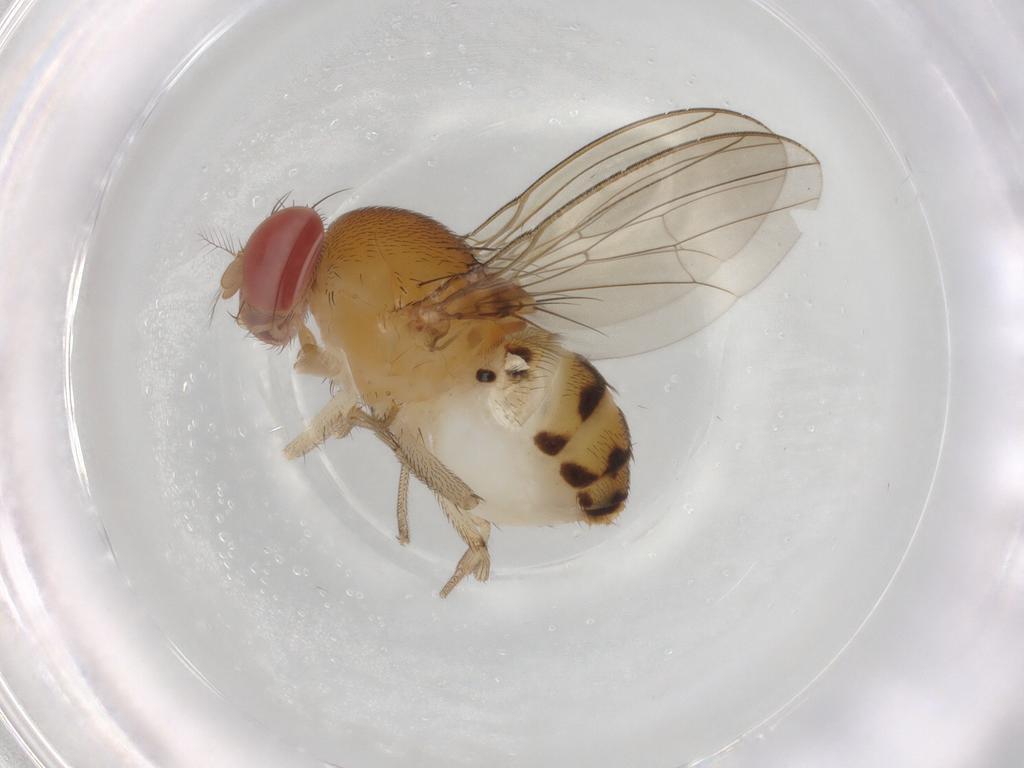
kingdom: Animalia
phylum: Arthropoda
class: Insecta
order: Diptera
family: Drosophilidae
